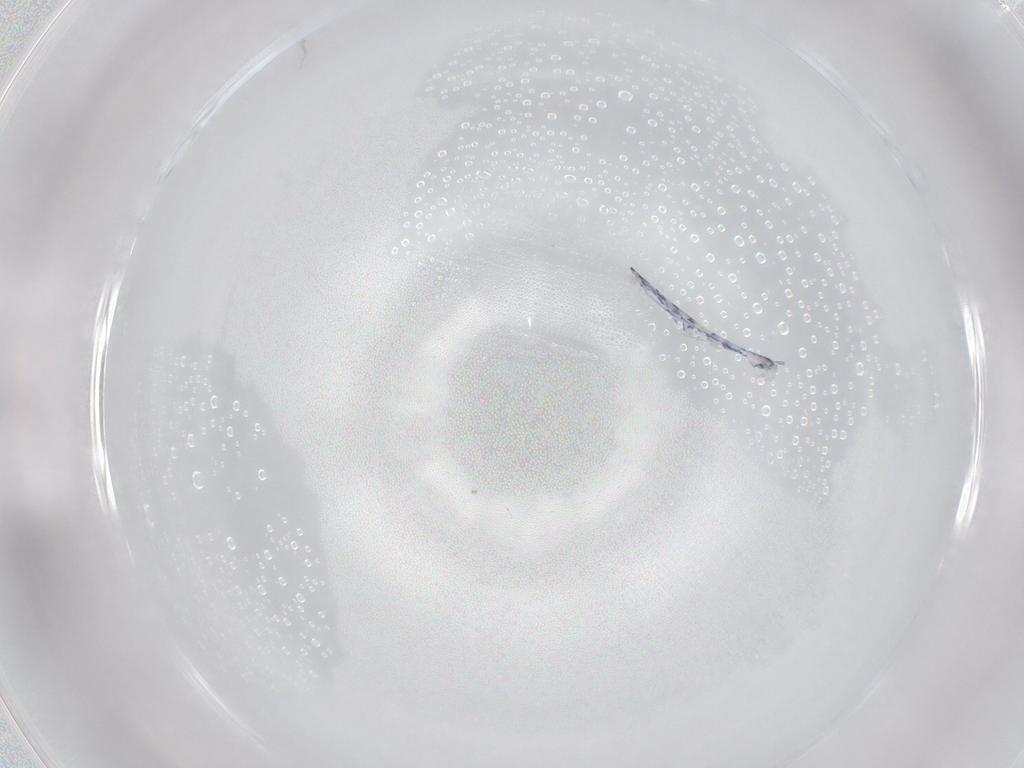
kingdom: Animalia
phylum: Arthropoda
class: Collembola
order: Entomobryomorpha
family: Entomobryidae
